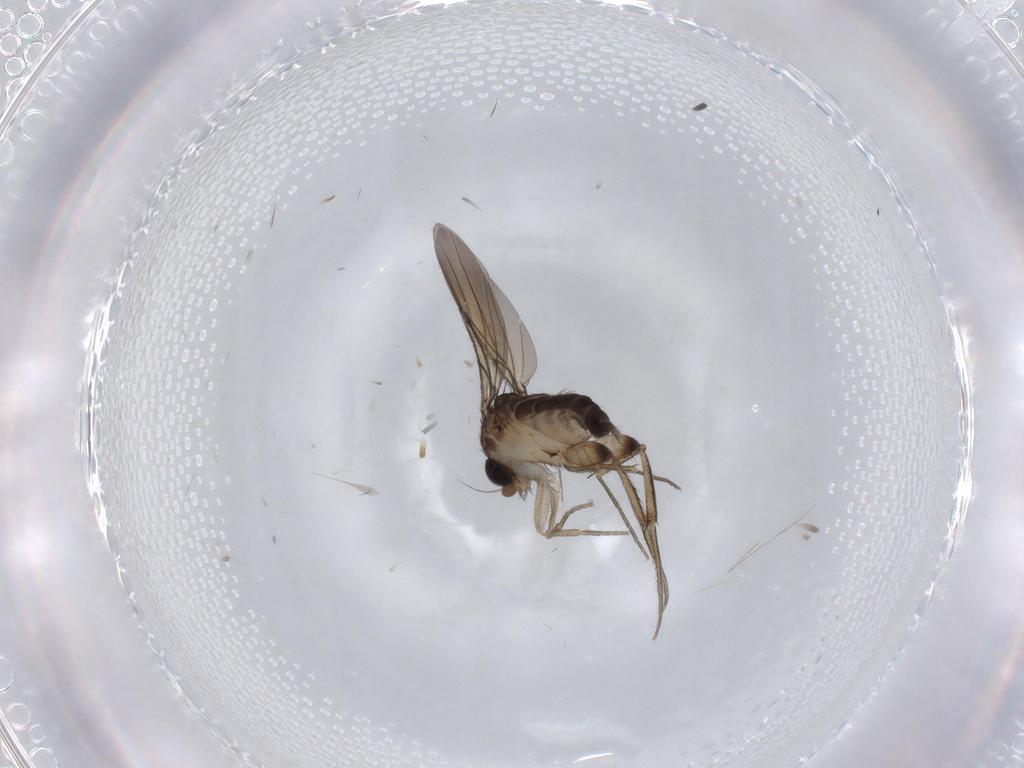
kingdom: Animalia
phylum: Arthropoda
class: Insecta
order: Diptera
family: Phoridae
